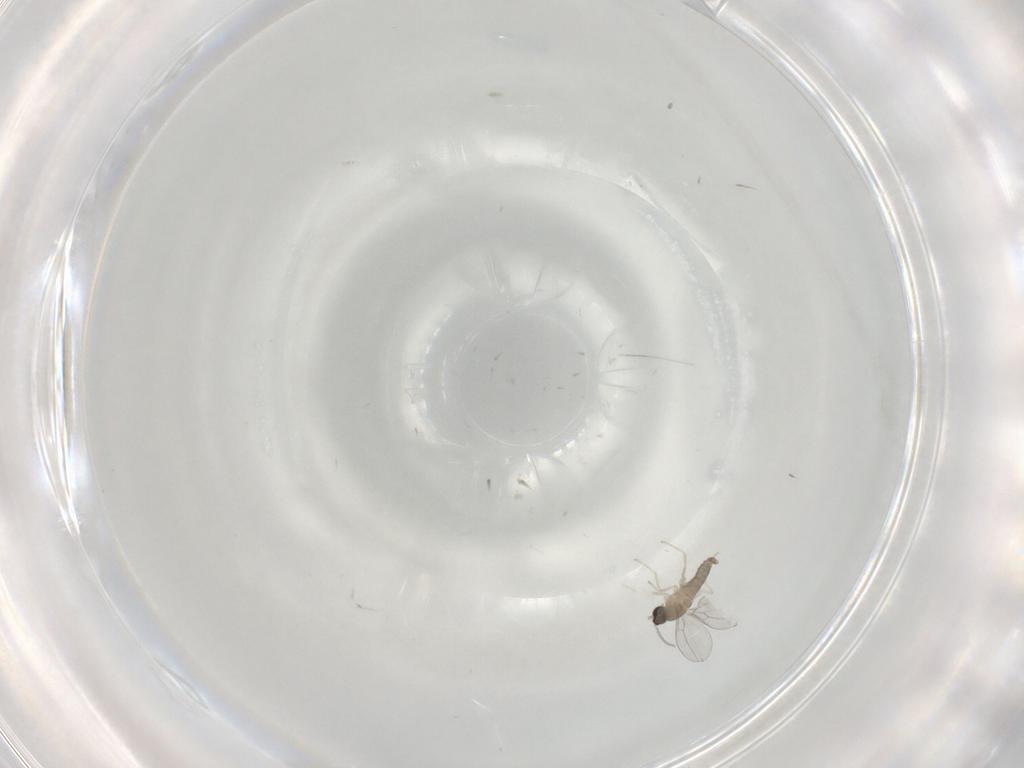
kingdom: Animalia
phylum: Arthropoda
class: Insecta
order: Diptera
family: Cecidomyiidae
